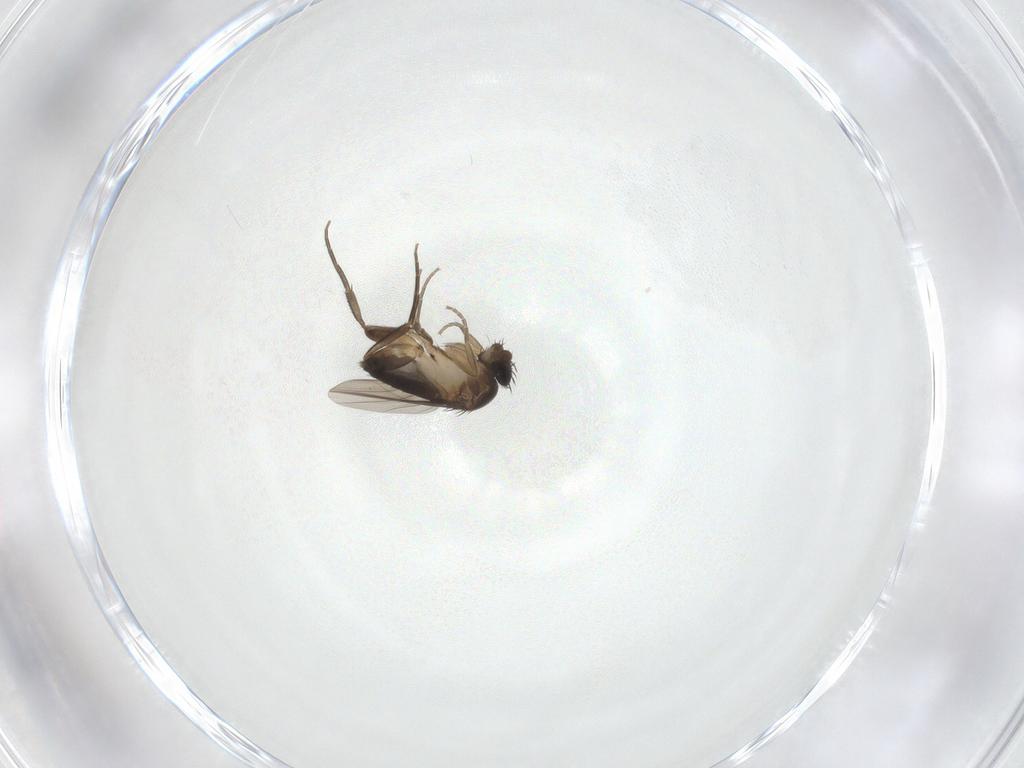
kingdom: Animalia
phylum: Arthropoda
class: Insecta
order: Diptera
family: Phoridae
